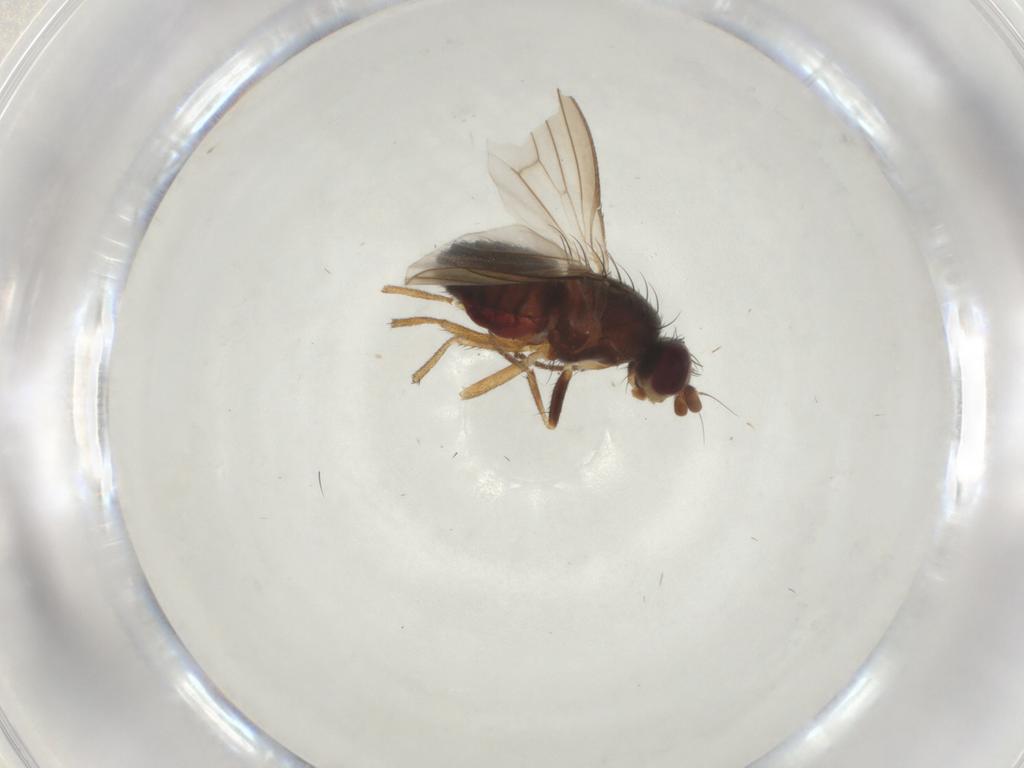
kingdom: Animalia
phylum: Arthropoda
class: Insecta
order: Diptera
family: Heleomyzidae
